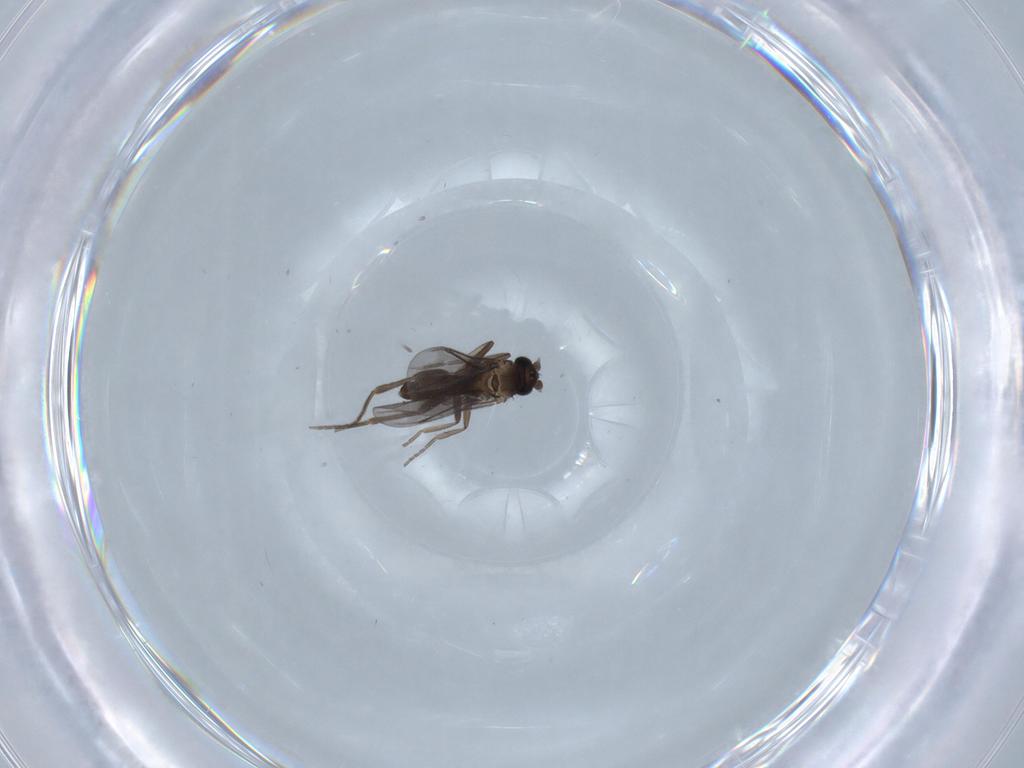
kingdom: Animalia
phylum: Arthropoda
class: Insecta
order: Diptera
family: Phoridae
